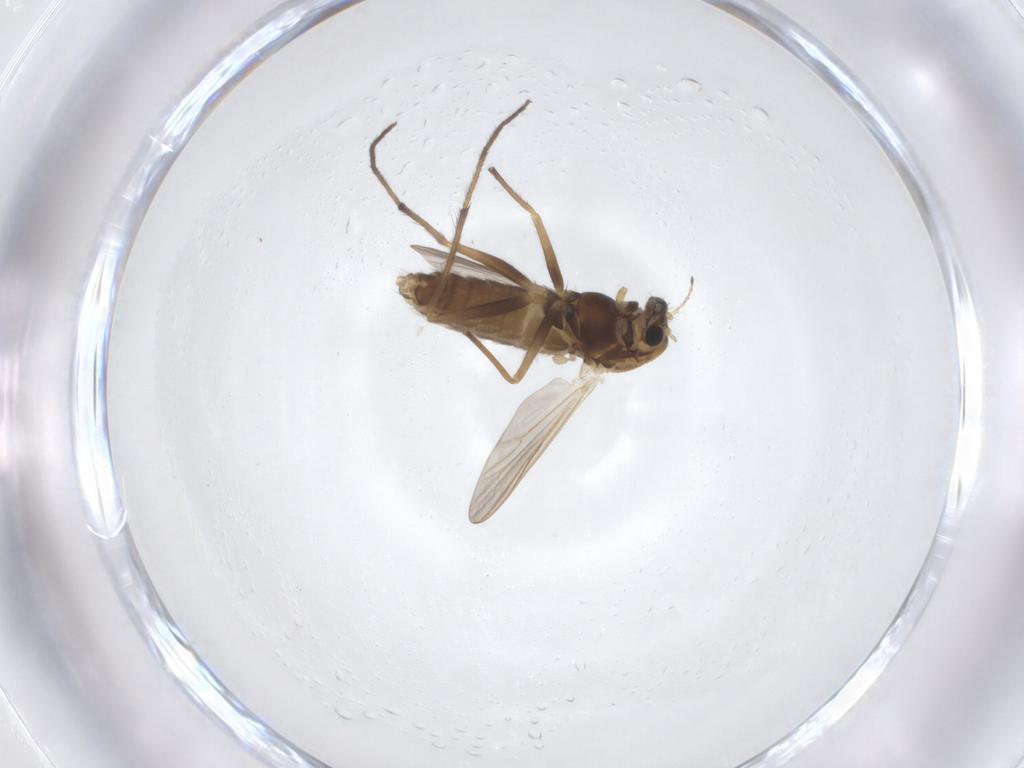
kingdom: Animalia
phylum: Arthropoda
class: Insecta
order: Diptera
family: Chironomidae
